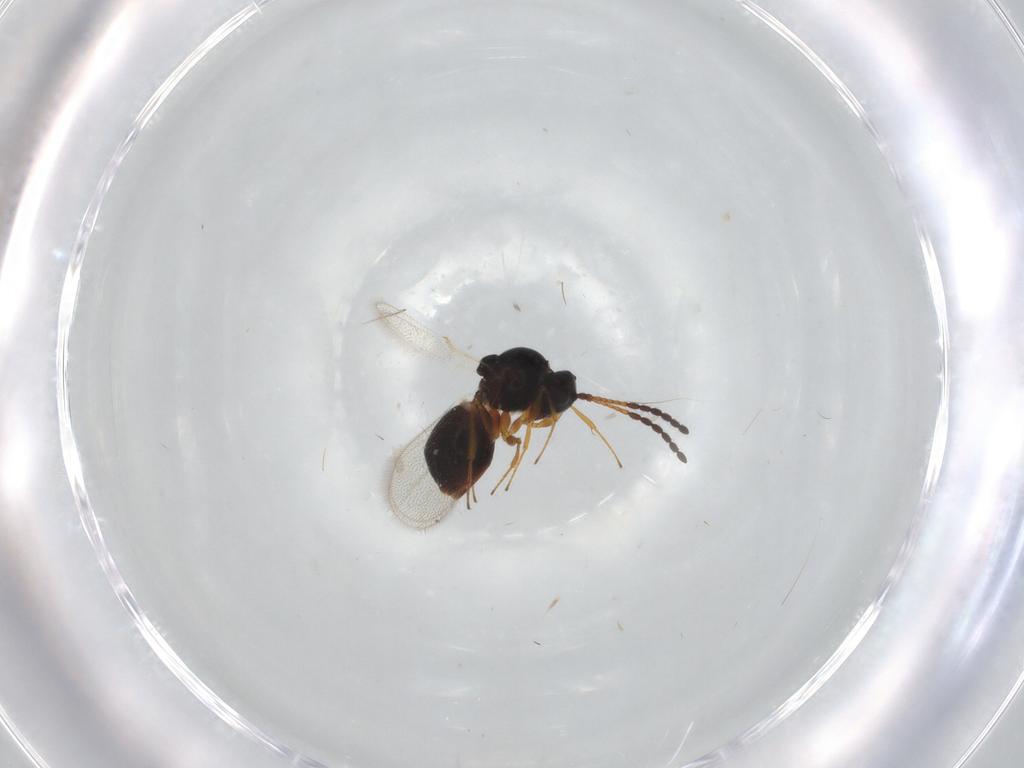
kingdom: Animalia
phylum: Arthropoda
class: Insecta
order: Hymenoptera
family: Figitidae
